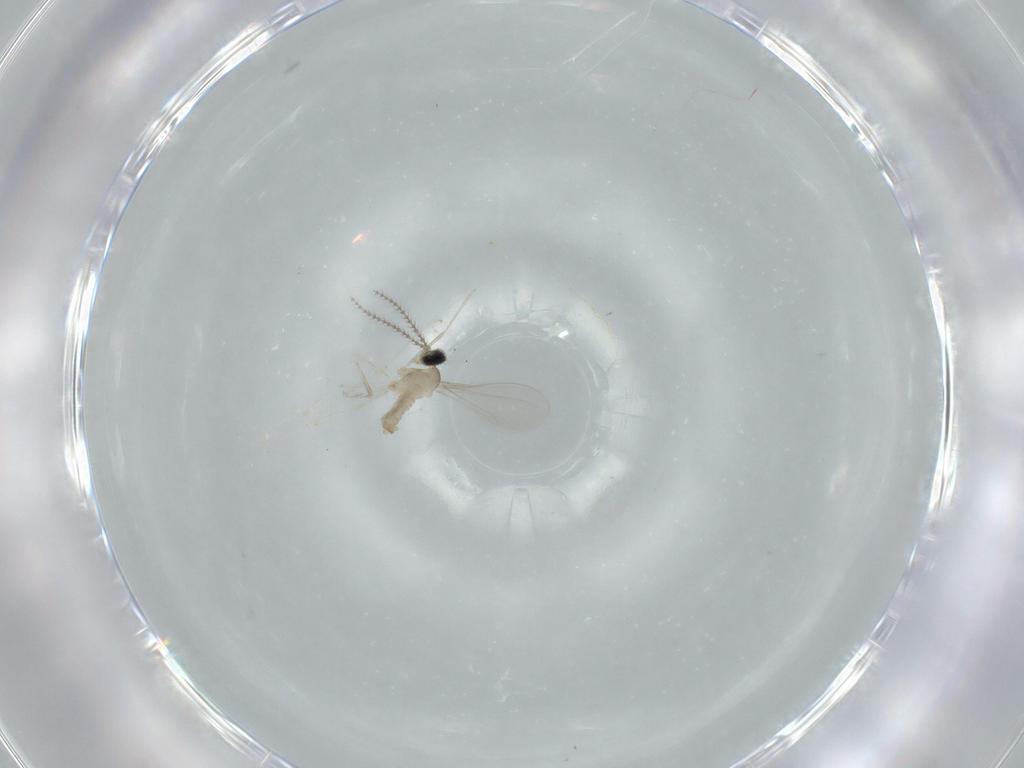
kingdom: Animalia
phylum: Arthropoda
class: Insecta
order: Diptera
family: Cecidomyiidae
